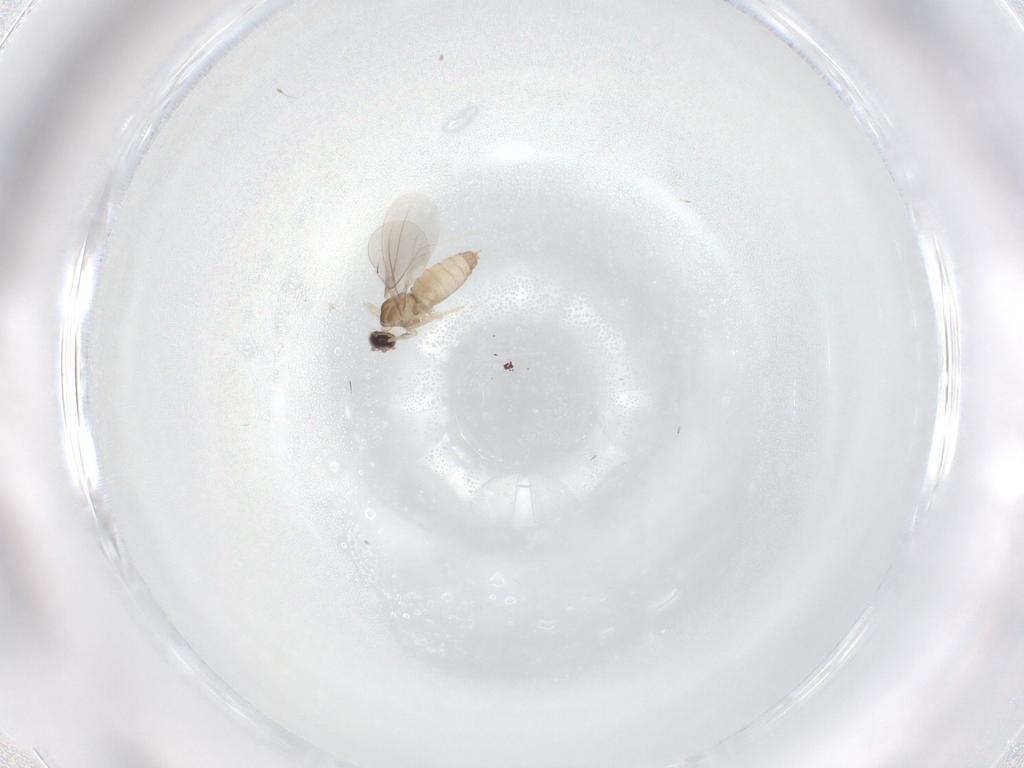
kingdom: Animalia
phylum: Arthropoda
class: Insecta
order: Diptera
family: Cecidomyiidae
